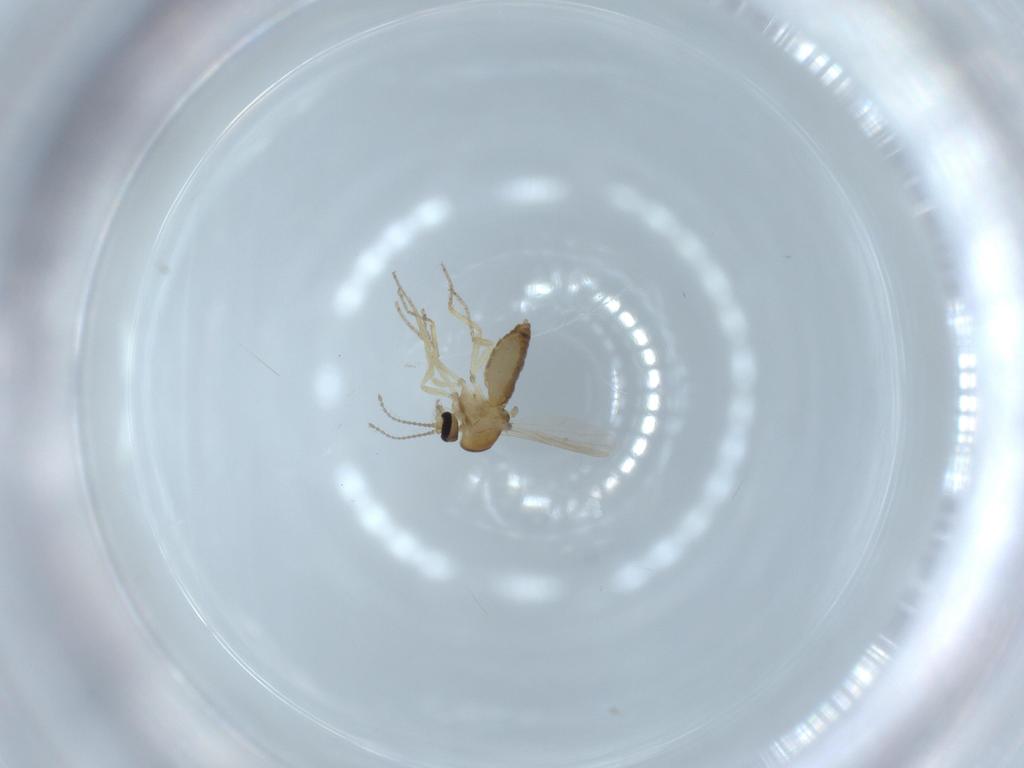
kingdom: Animalia
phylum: Arthropoda
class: Insecta
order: Diptera
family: Ceratopogonidae
